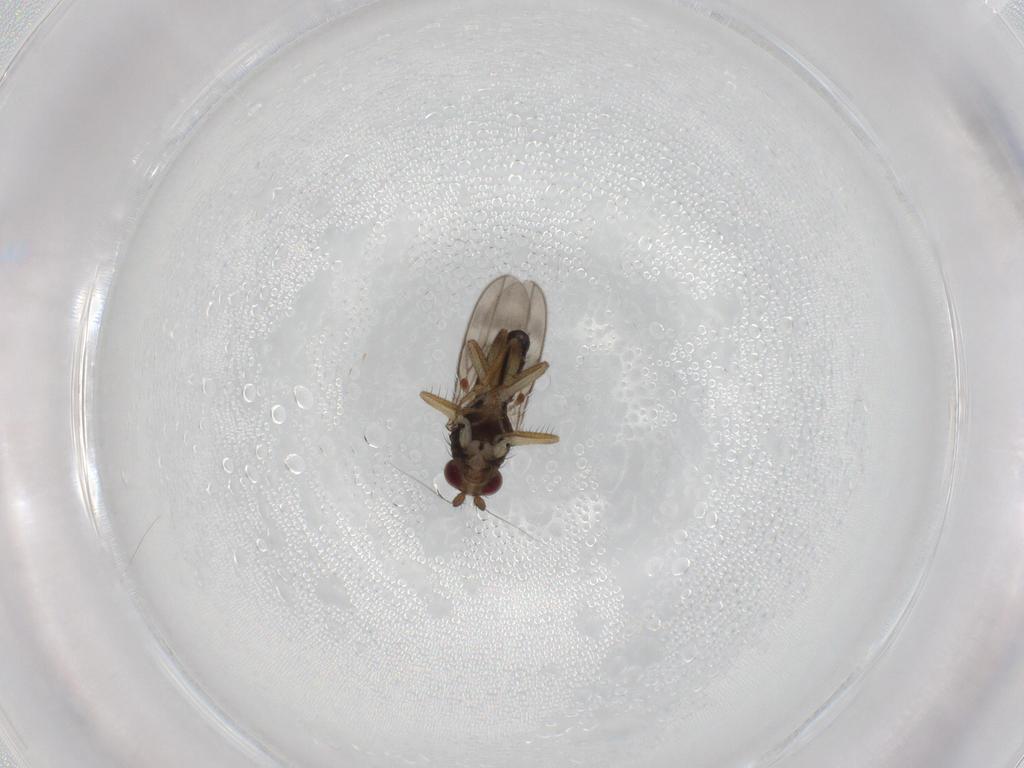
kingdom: Animalia
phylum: Arthropoda
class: Insecta
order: Diptera
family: Sphaeroceridae
